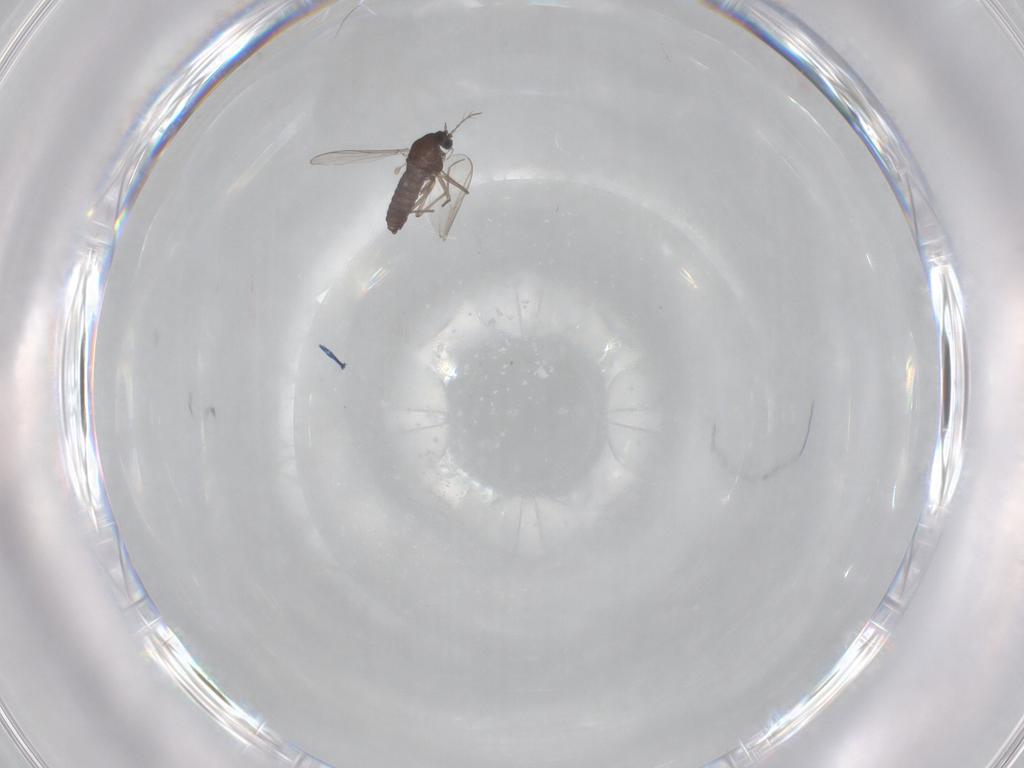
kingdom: Animalia
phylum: Arthropoda
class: Insecta
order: Diptera
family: Chironomidae
